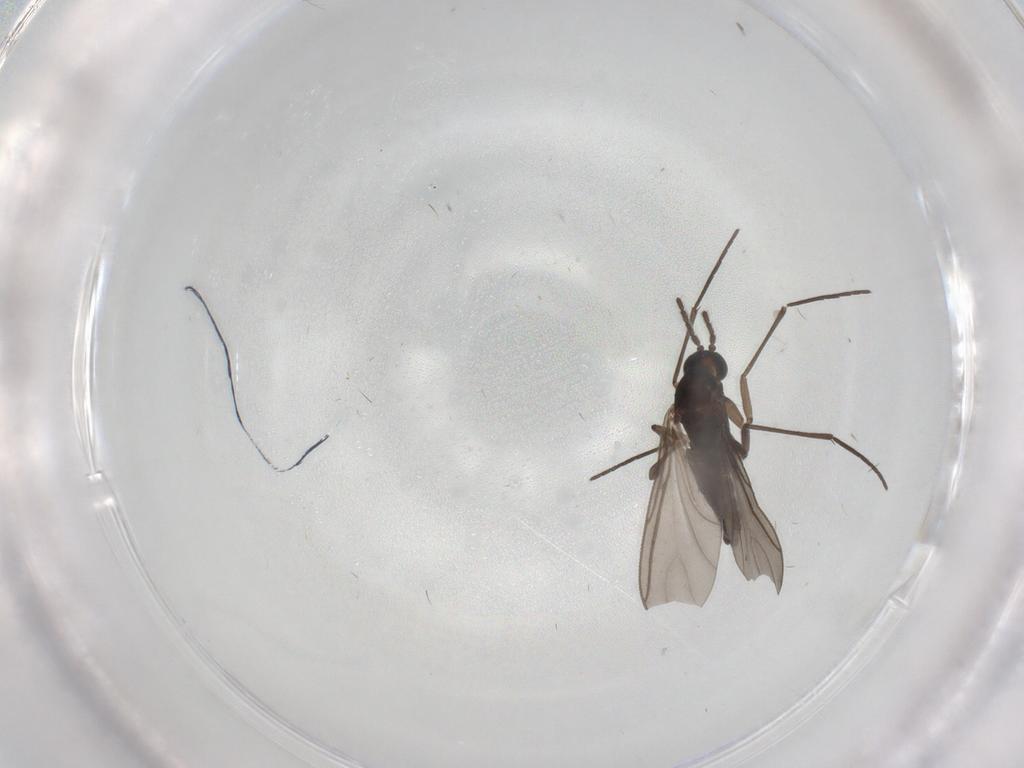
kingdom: Animalia
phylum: Arthropoda
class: Insecta
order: Diptera
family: Sciaridae
